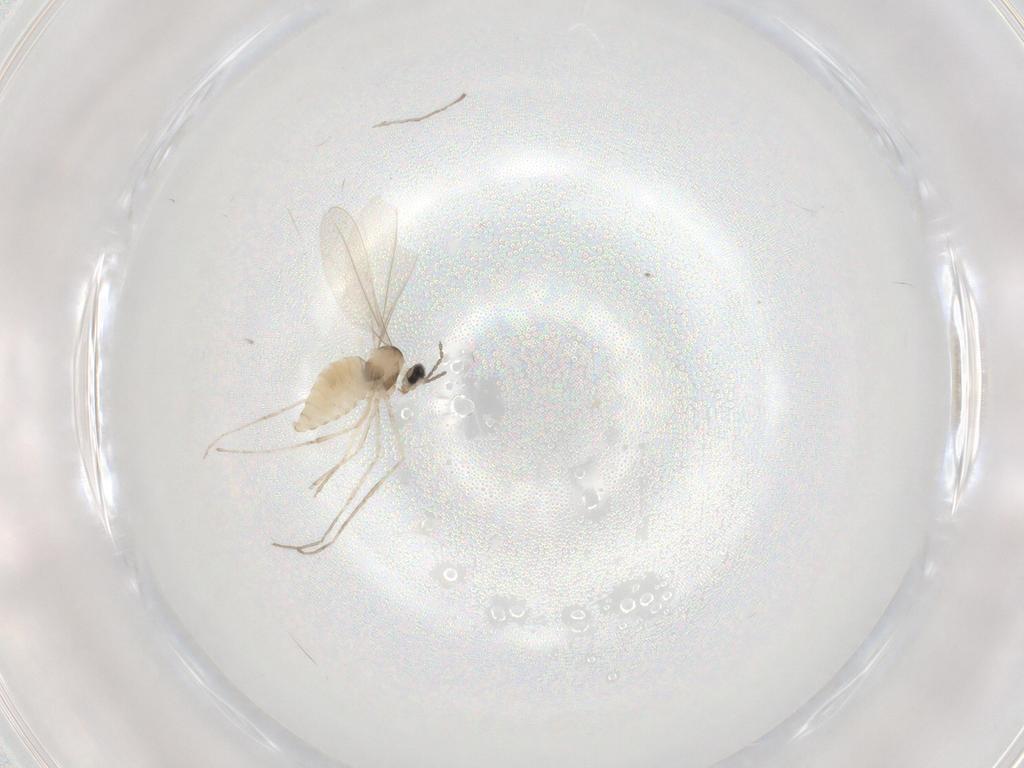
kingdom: Animalia
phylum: Arthropoda
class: Insecta
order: Diptera
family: Cecidomyiidae
